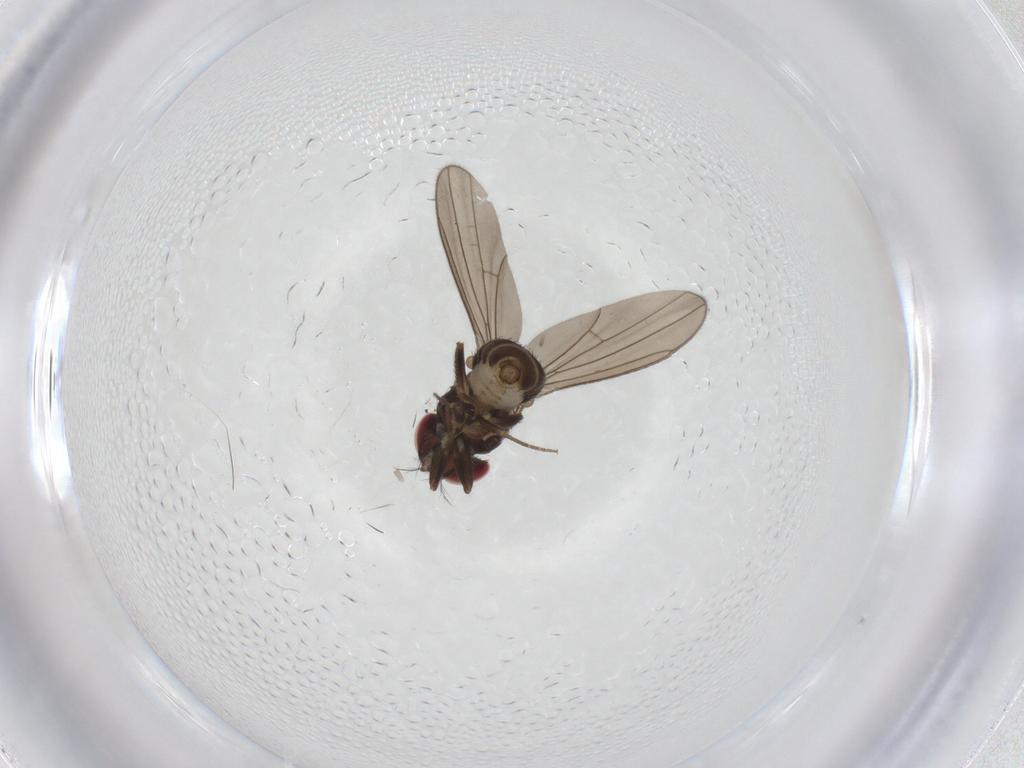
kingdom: Animalia
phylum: Arthropoda
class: Insecta
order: Diptera
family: Drosophilidae
